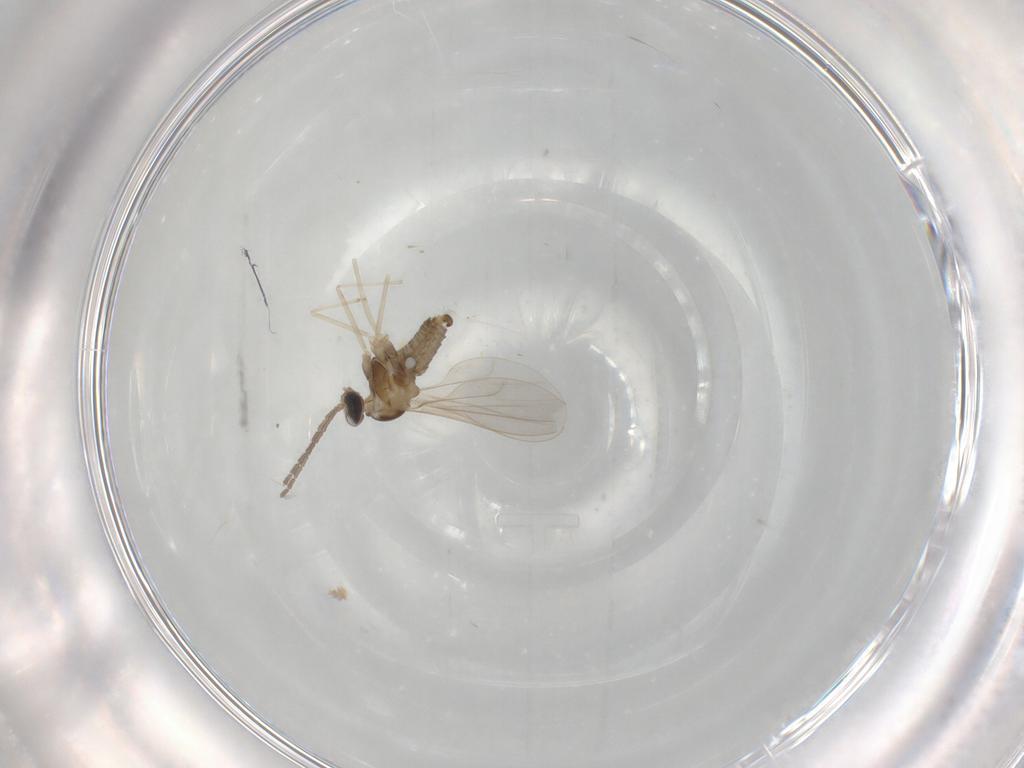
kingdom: Animalia
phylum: Arthropoda
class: Insecta
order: Diptera
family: Cecidomyiidae
